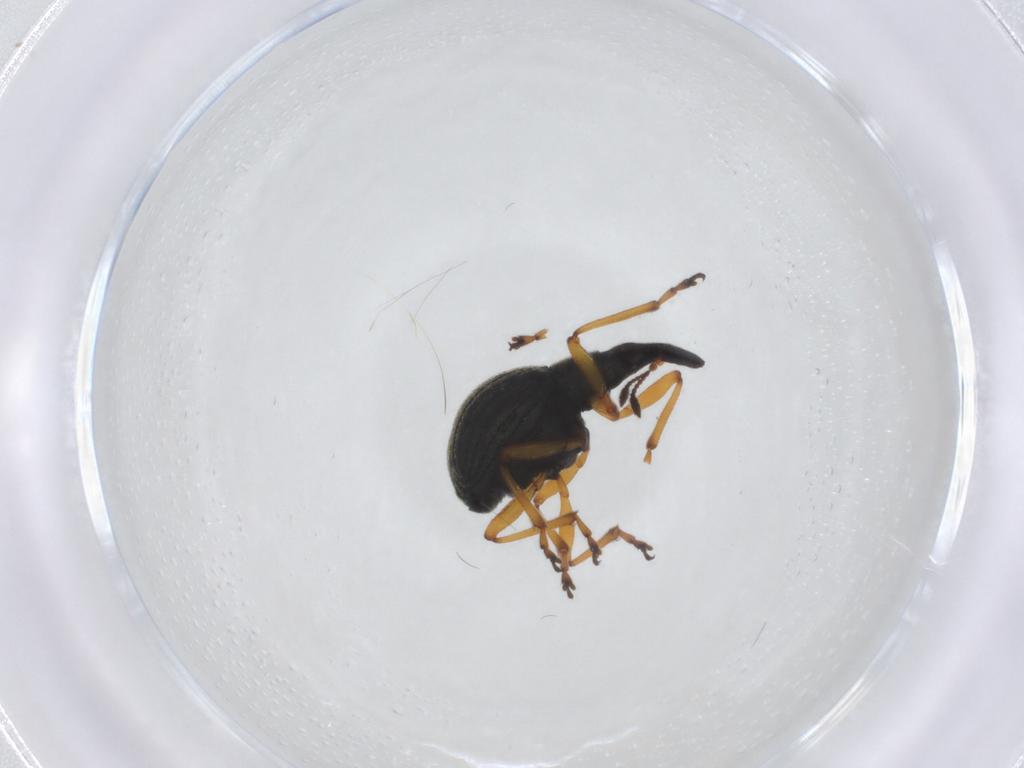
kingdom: Animalia
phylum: Arthropoda
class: Insecta
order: Coleoptera
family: Brentidae
